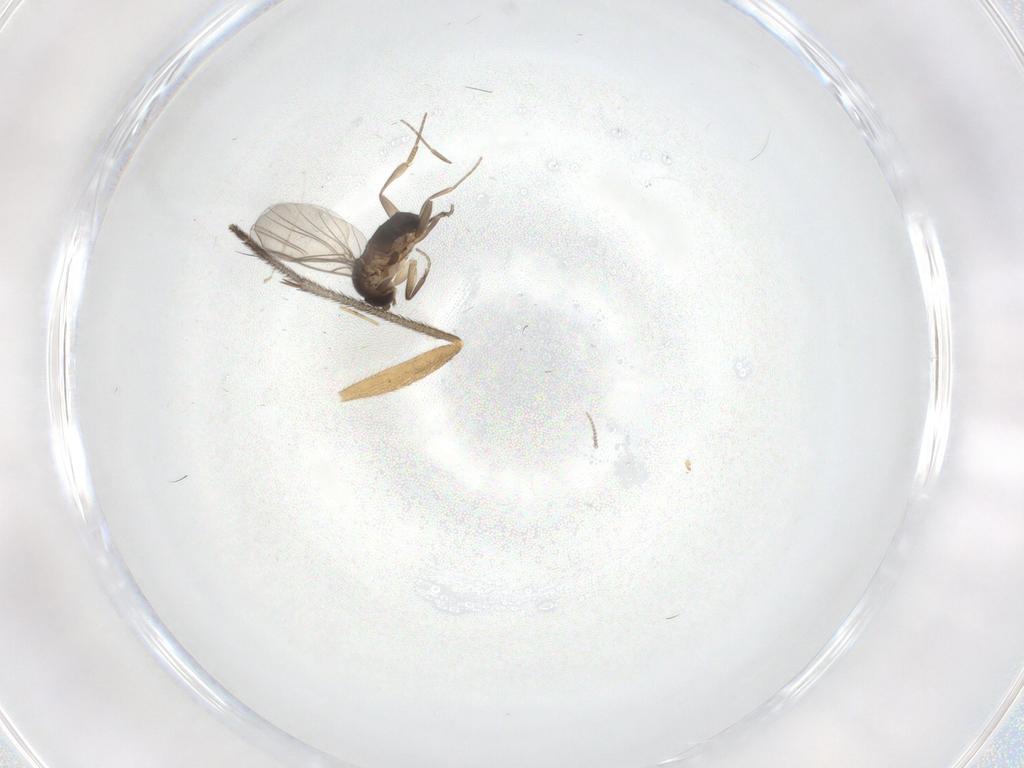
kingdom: Animalia
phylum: Arthropoda
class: Insecta
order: Diptera
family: Phoridae
